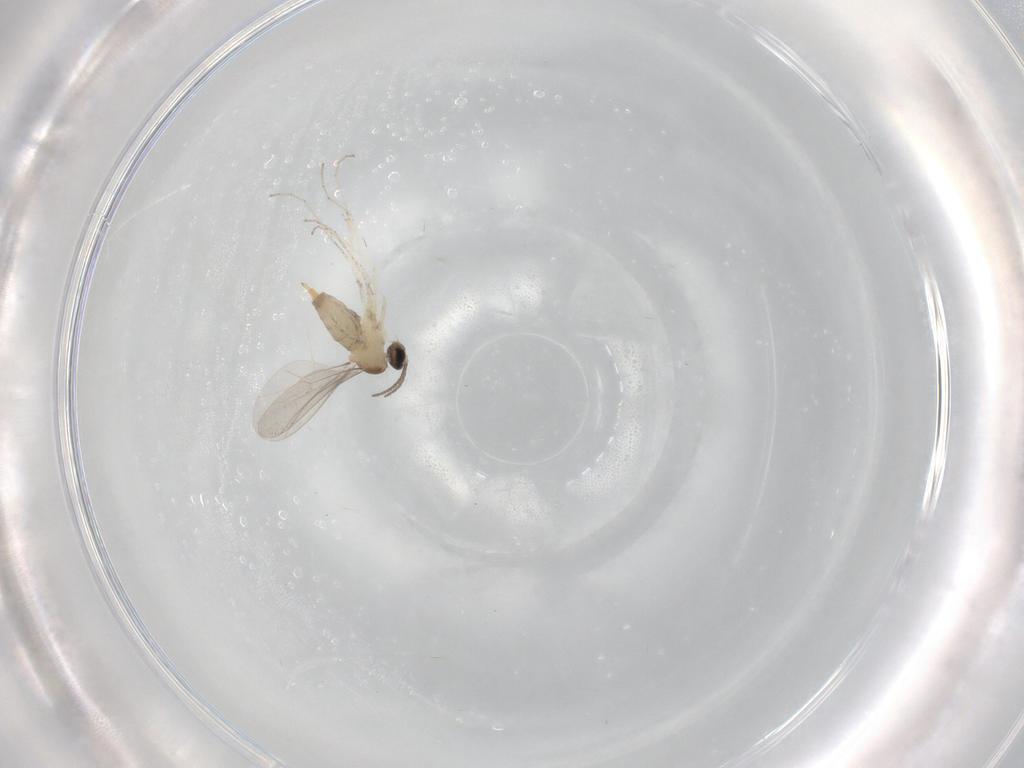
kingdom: Animalia
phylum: Arthropoda
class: Insecta
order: Diptera
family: Cecidomyiidae
